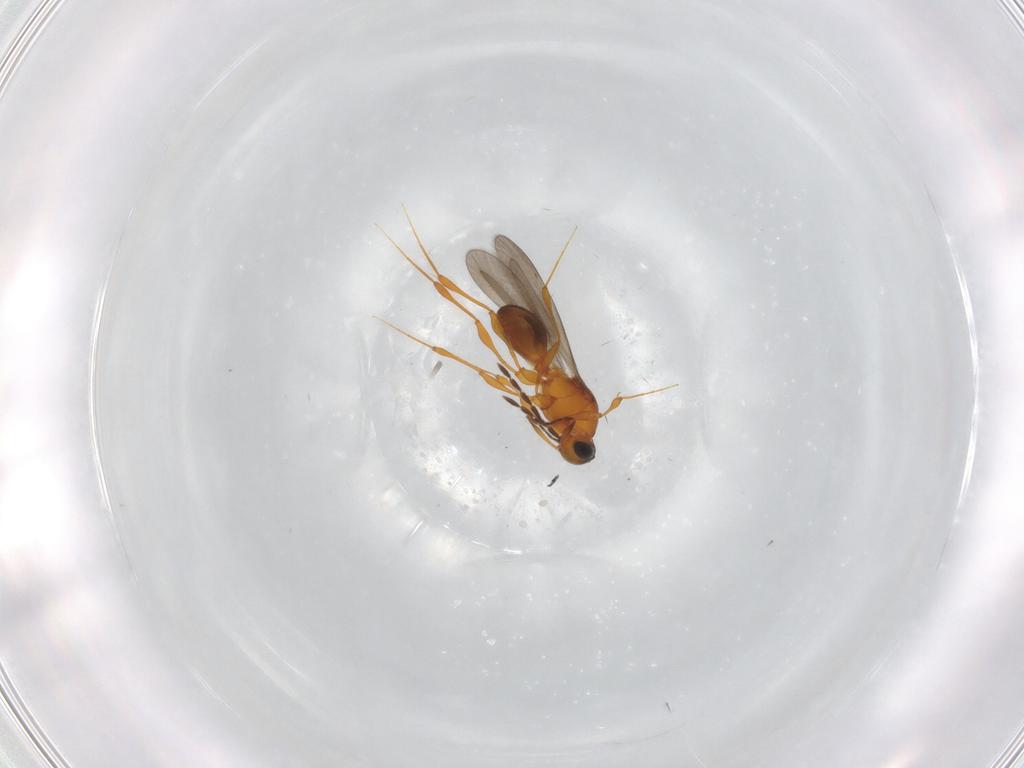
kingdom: Animalia
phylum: Arthropoda
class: Insecta
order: Hymenoptera
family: Platygastridae
